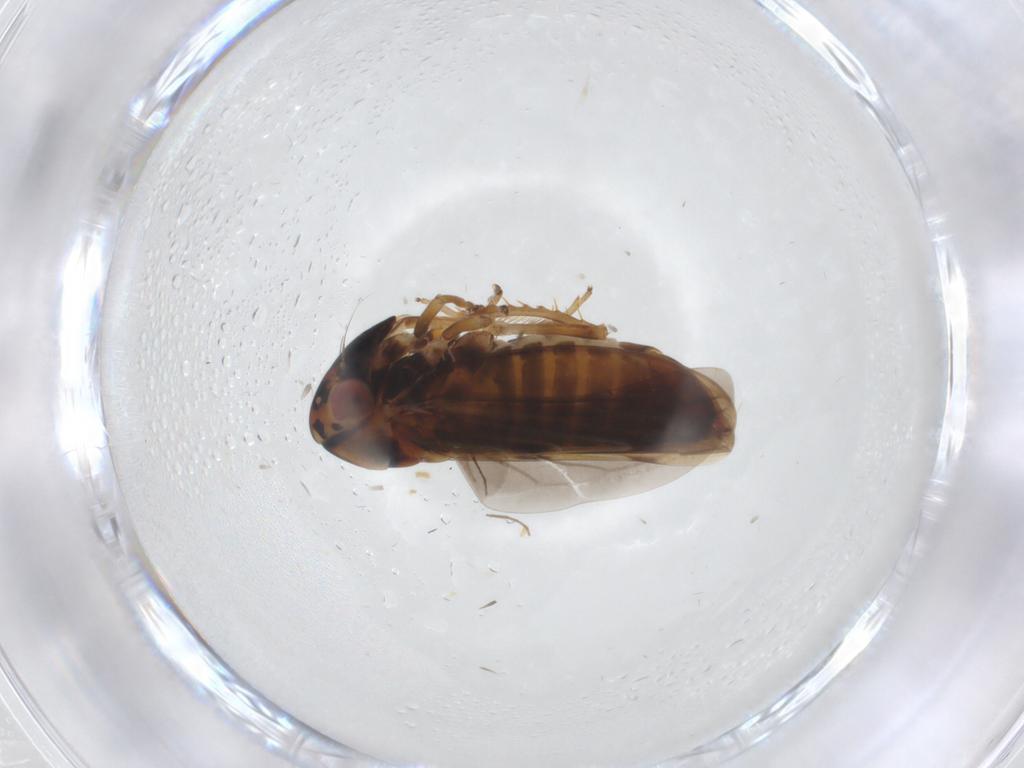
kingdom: Animalia
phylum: Arthropoda
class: Insecta
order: Hemiptera
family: Cicadellidae
